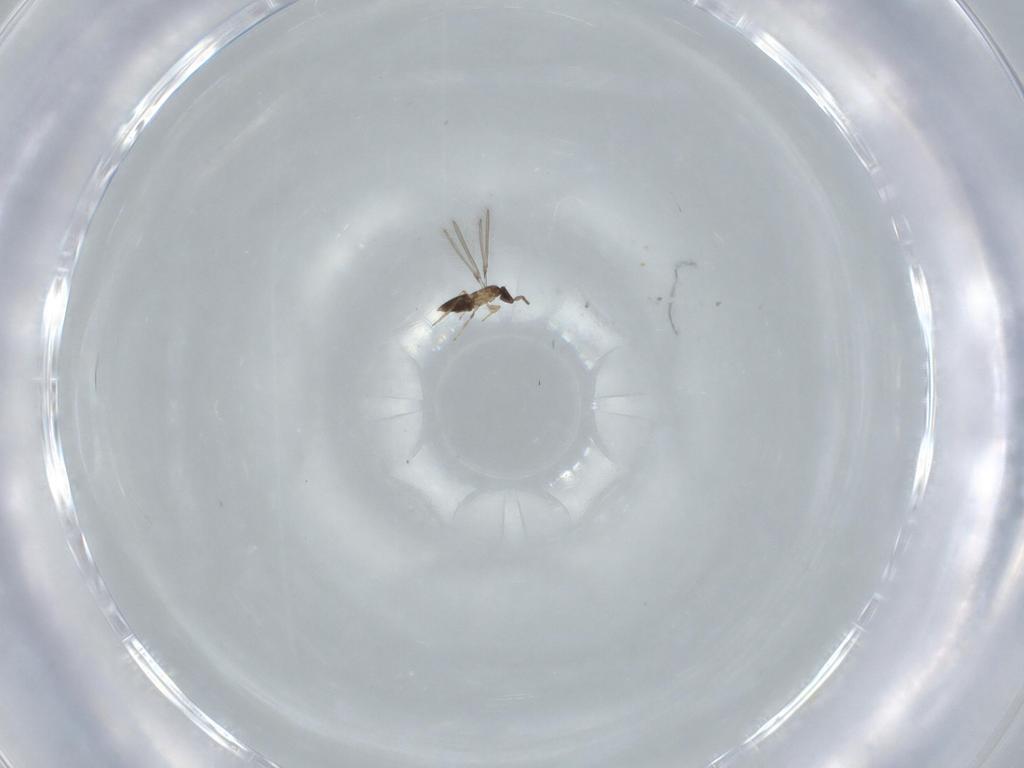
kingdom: Animalia
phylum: Arthropoda
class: Insecta
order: Hymenoptera
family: Mymaridae
